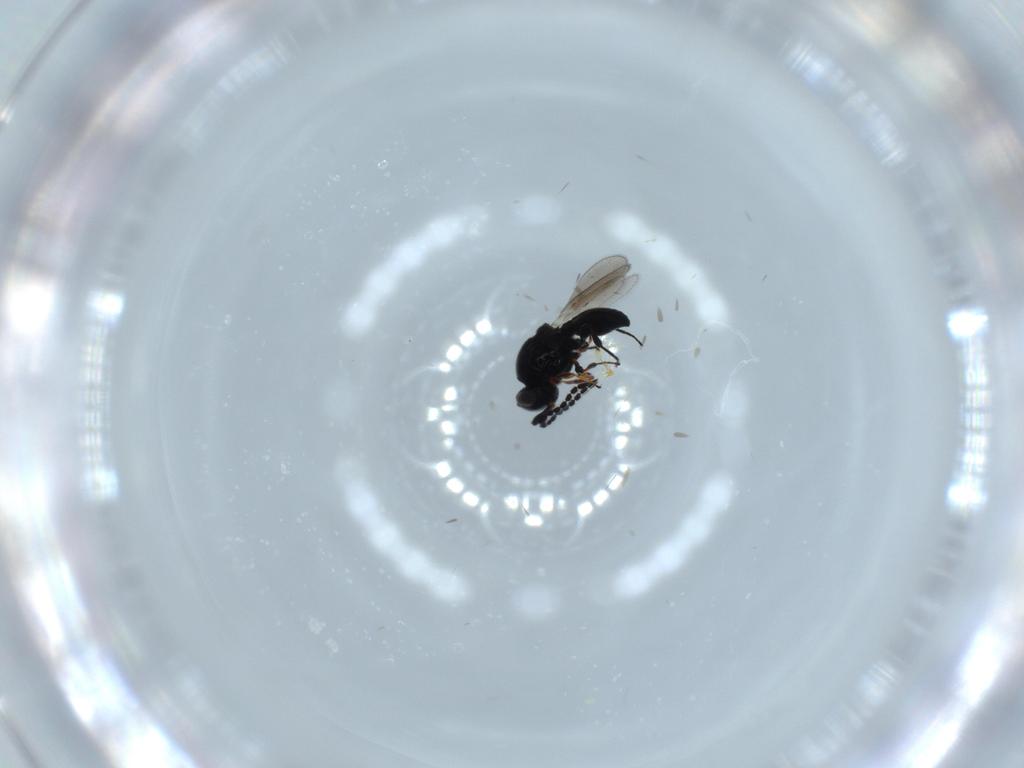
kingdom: Animalia
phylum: Arthropoda
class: Insecta
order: Hymenoptera
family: Platygastridae
